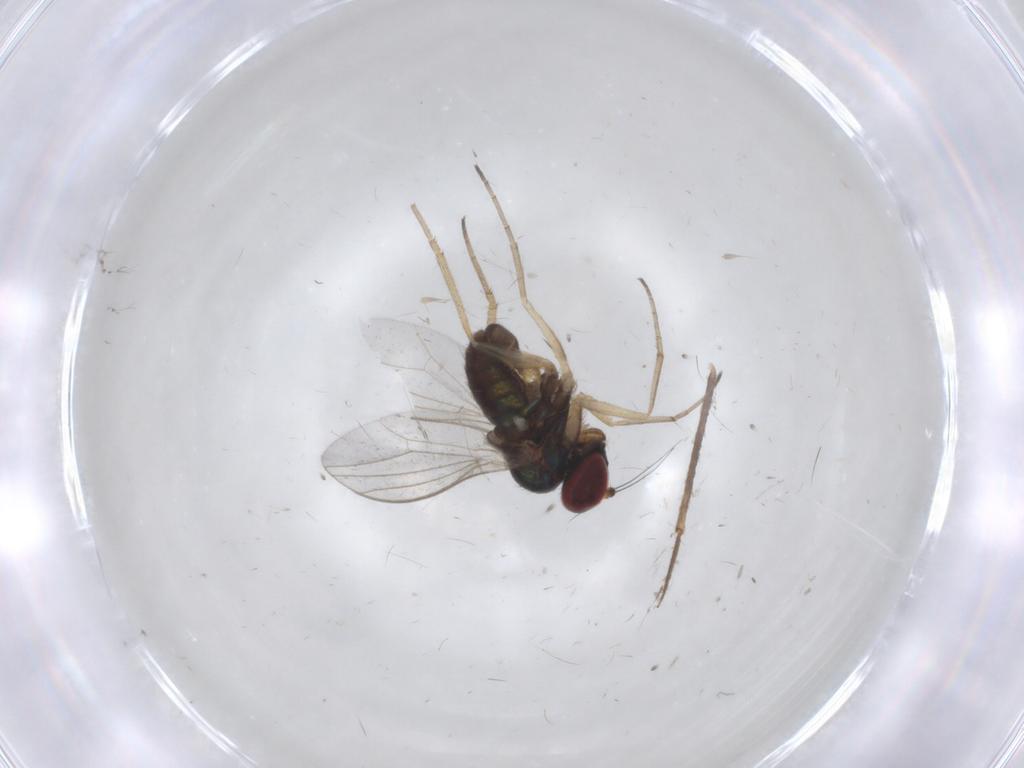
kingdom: Animalia
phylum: Arthropoda
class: Insecta
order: Diptera
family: Dolichopodidae
